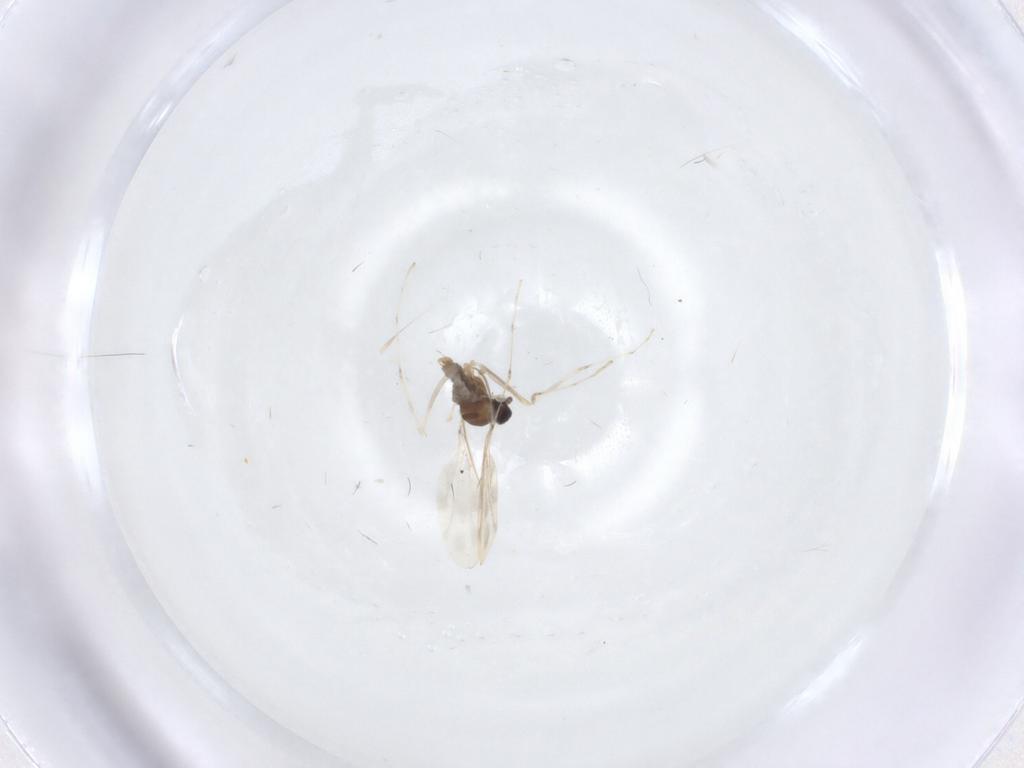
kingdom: Animalia
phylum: Arthropoda
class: Insecta
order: Diptera
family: Cecidomyiidae
